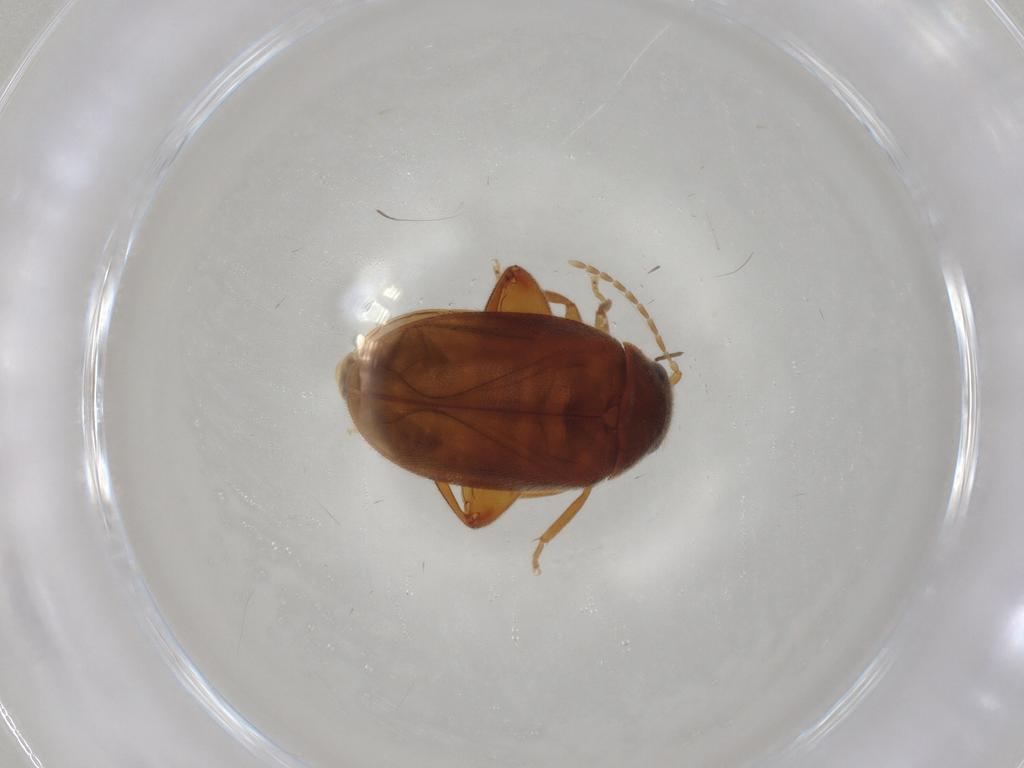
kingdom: Animalia
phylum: Arthropoda
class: Insecta
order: Coleoptera
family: Scirtidae
